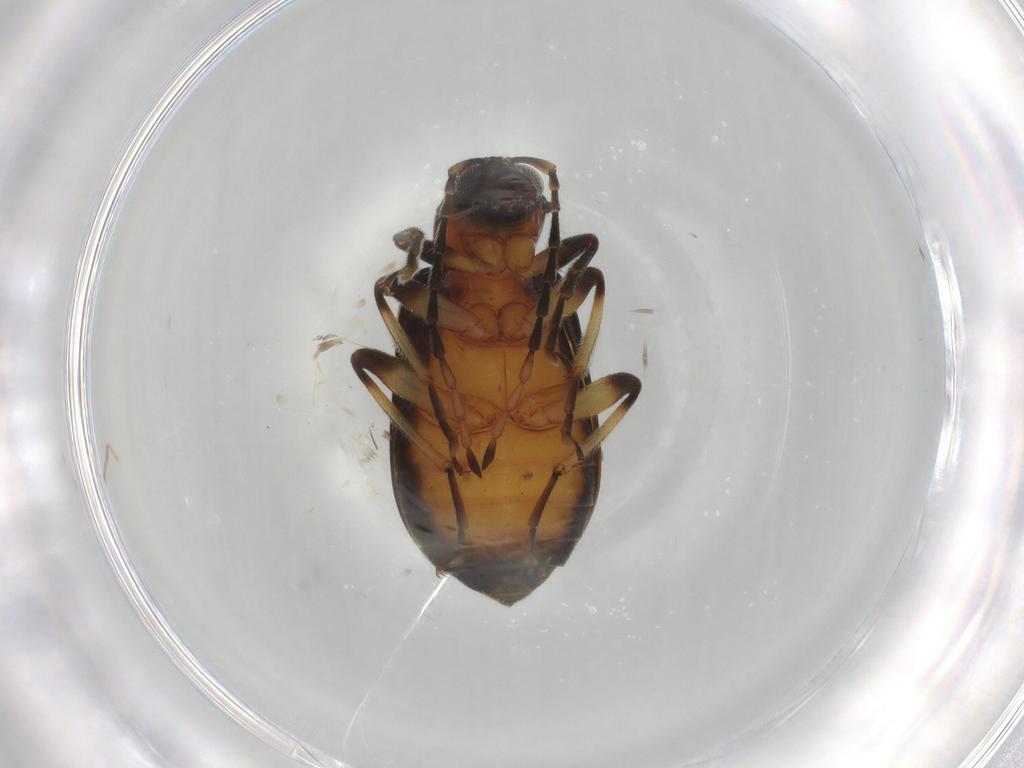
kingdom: Animalia
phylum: Arthropoda
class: Insecta
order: Coleoptera
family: Chrysomelidae
